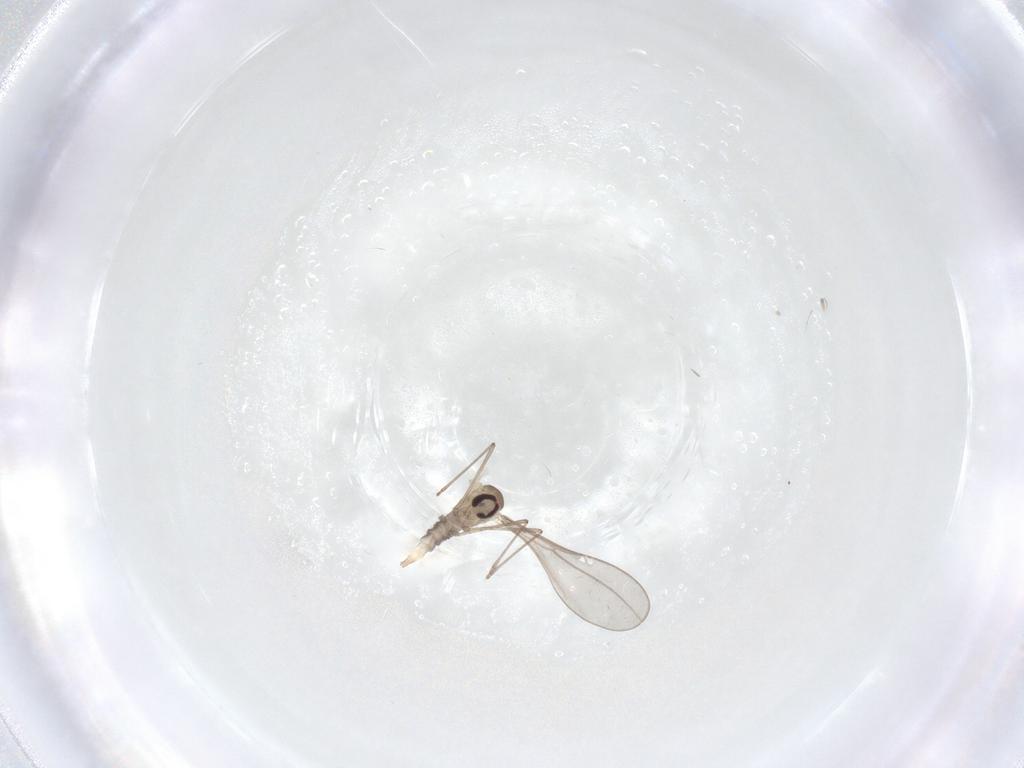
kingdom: Animalia
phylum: Arthropoda
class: Insecta
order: Diptera
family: Cecidomyiidae
